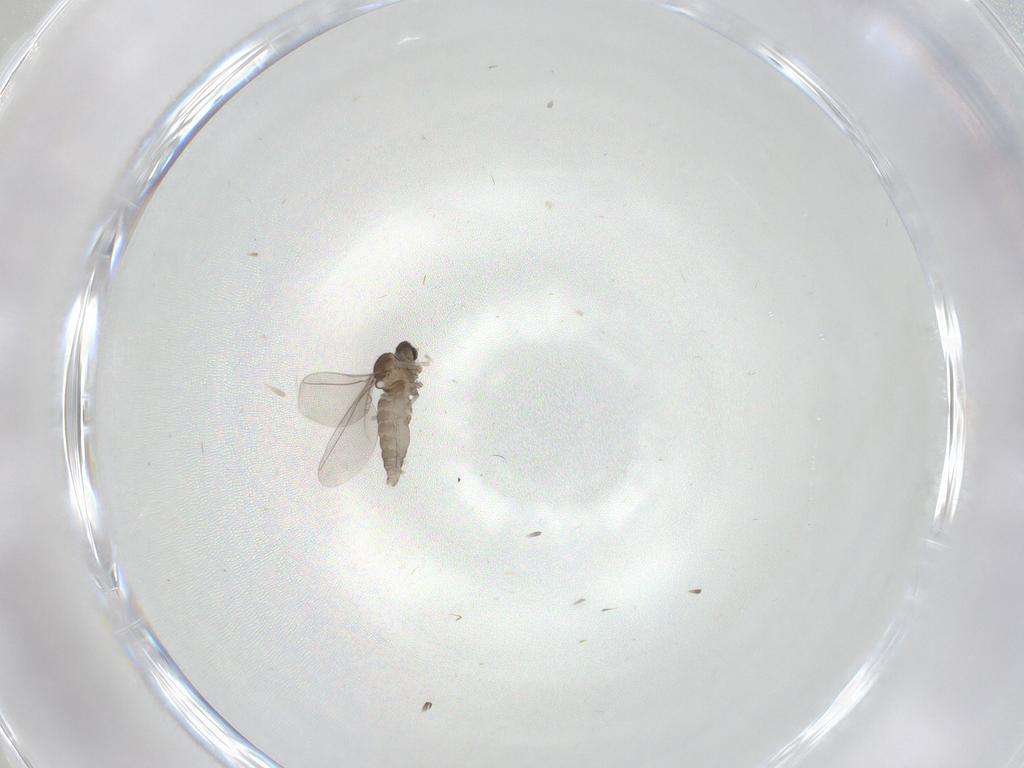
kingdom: Animalia
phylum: Arthropoda
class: Insecta
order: Diptera
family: Cecidomyiidae
